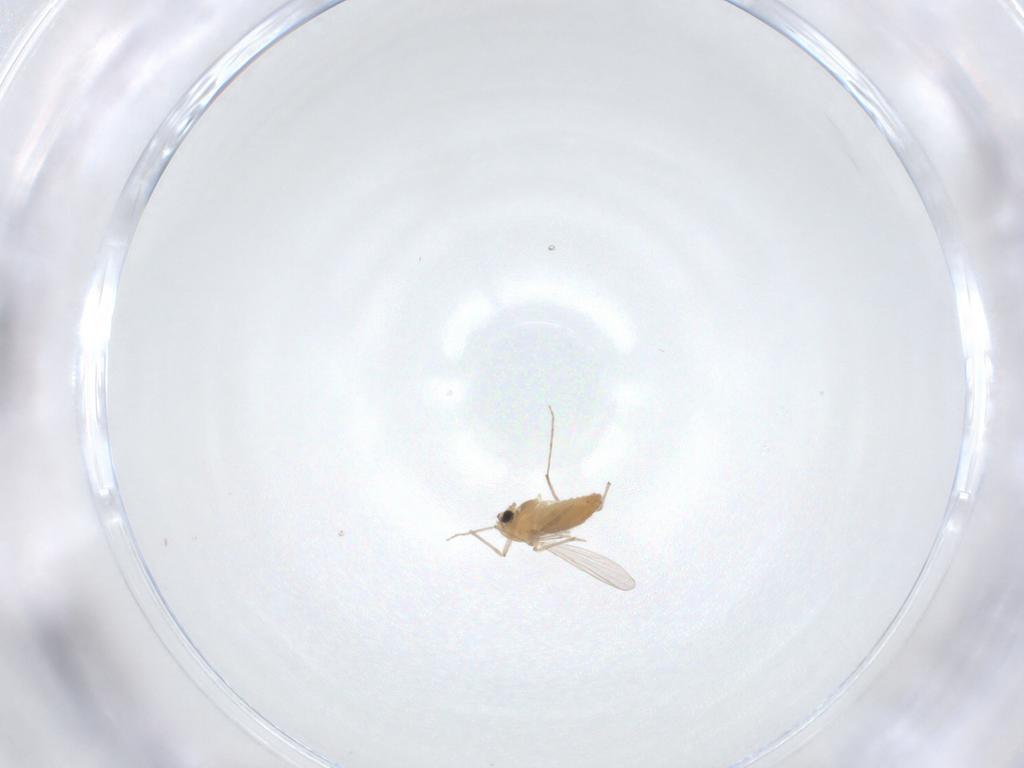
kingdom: Animalia
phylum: Arthropoda
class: Insecta
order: Diptera
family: Chironomidae
